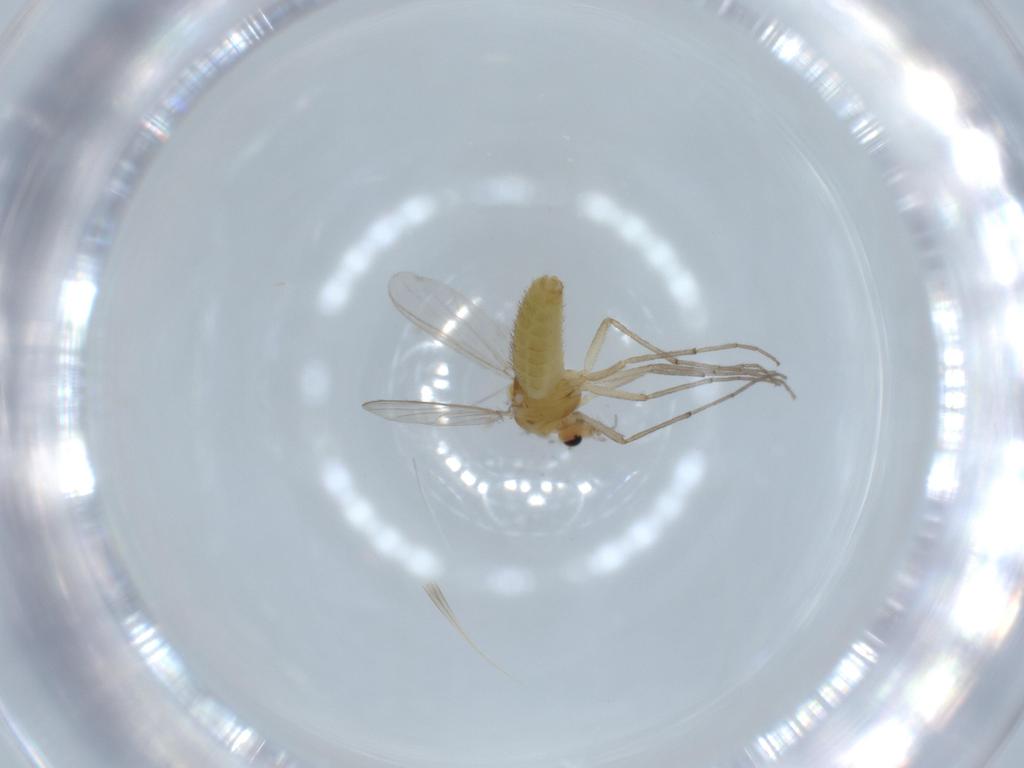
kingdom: Animalia
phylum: Arthropoda
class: Insecta
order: Diptera
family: Chironomidae
